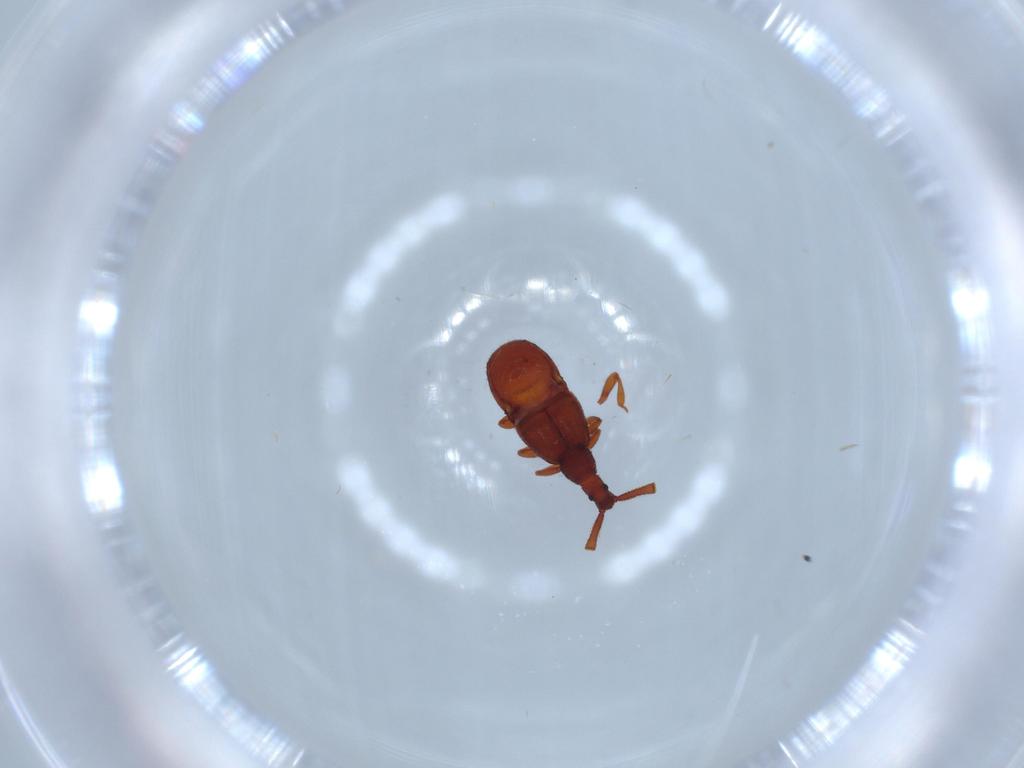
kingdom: Animalia
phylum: Arthropoda
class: Insecta
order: Coleoptera
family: Staphylinidae
